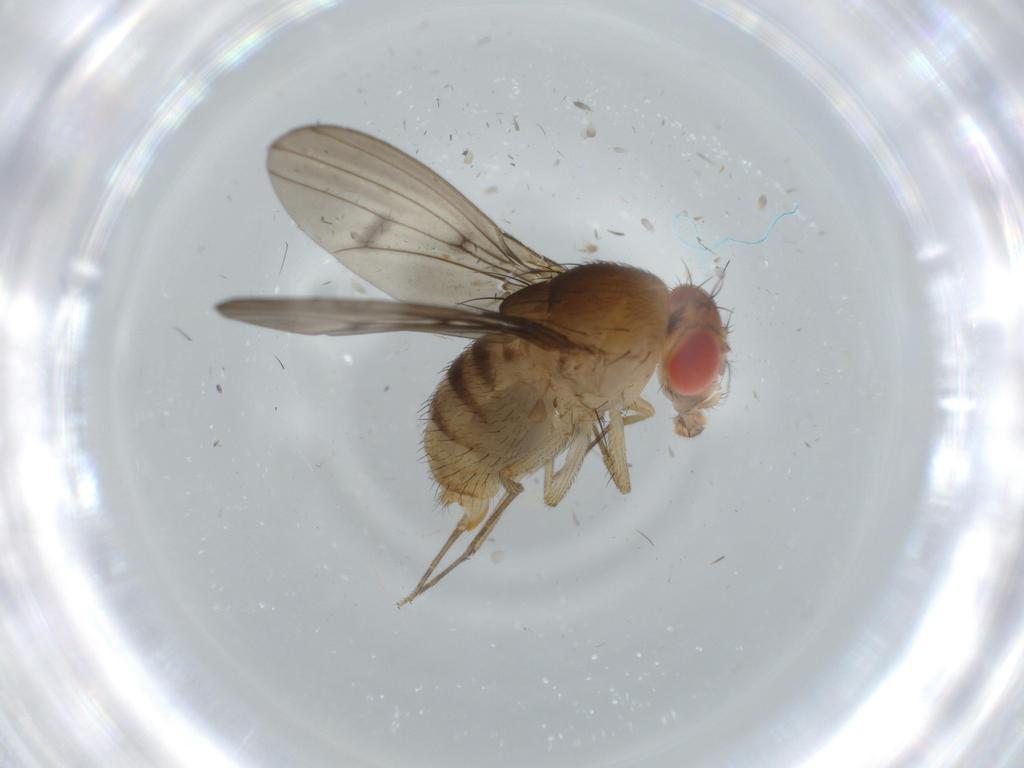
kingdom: Animalia
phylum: Arthropoda
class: Insecta
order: Diptera
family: Drosophilidae
